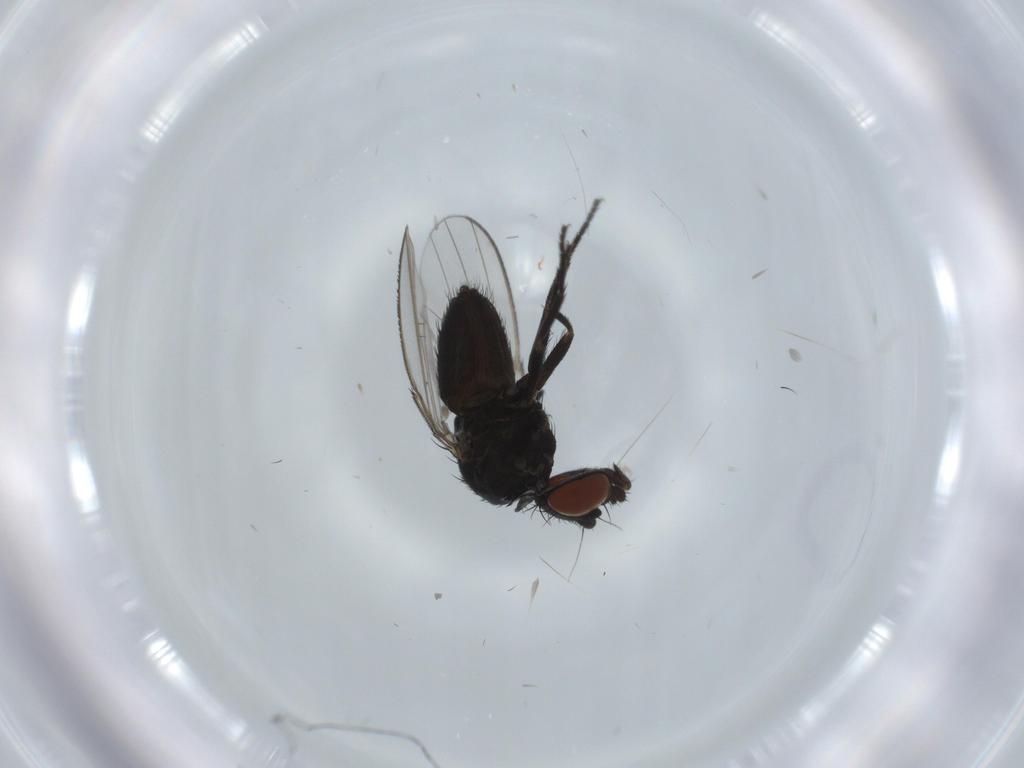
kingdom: Animalia
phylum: Arthropoda
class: Insecta
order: Diptera
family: Milichiidae
